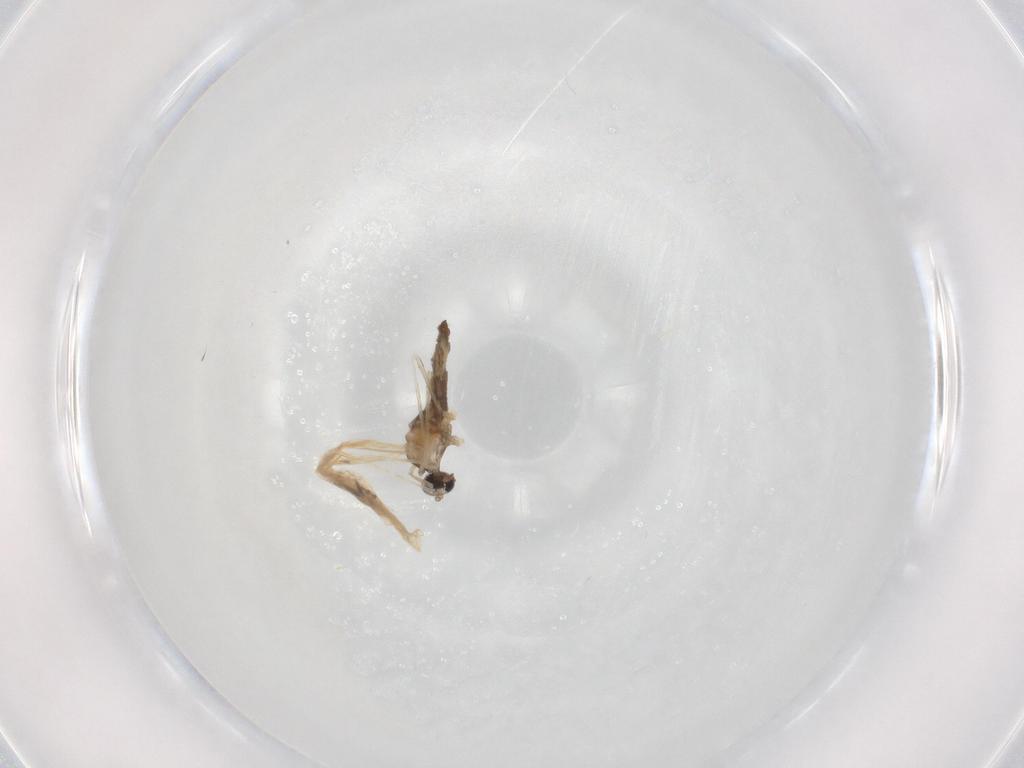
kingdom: Animalia
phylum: Arthropoda
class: Insecta
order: Diptera
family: Cecidomyiidae
